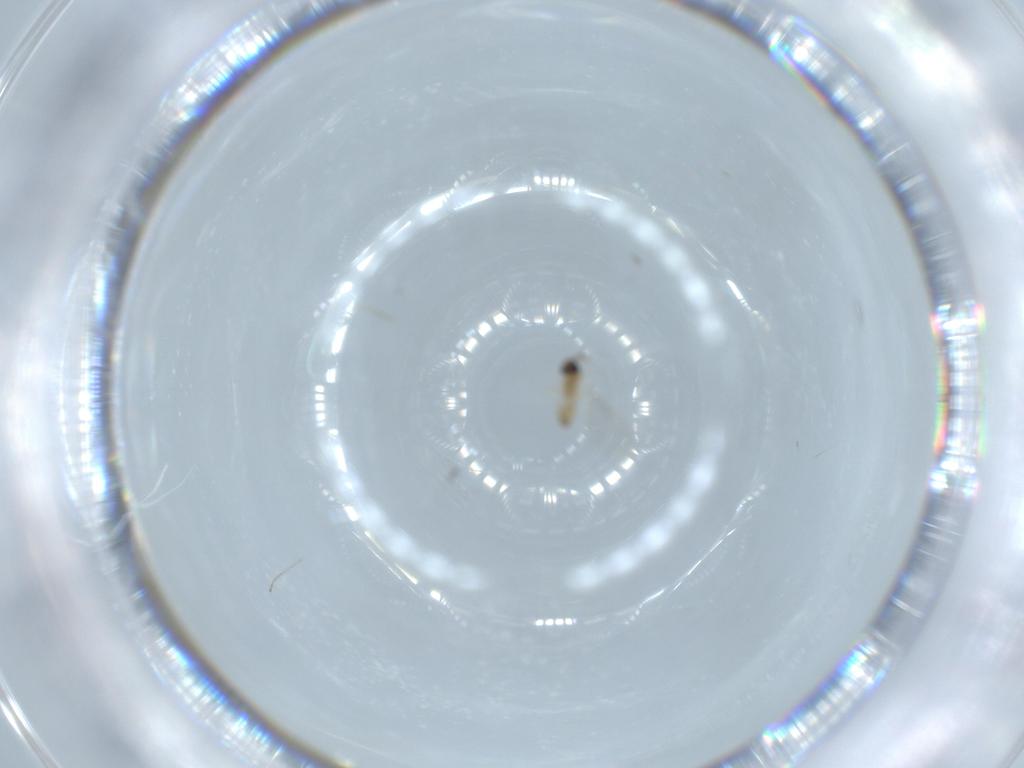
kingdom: Animalia
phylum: Arthropoda
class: Insecta
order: Diptera
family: Cecidomyiidae
